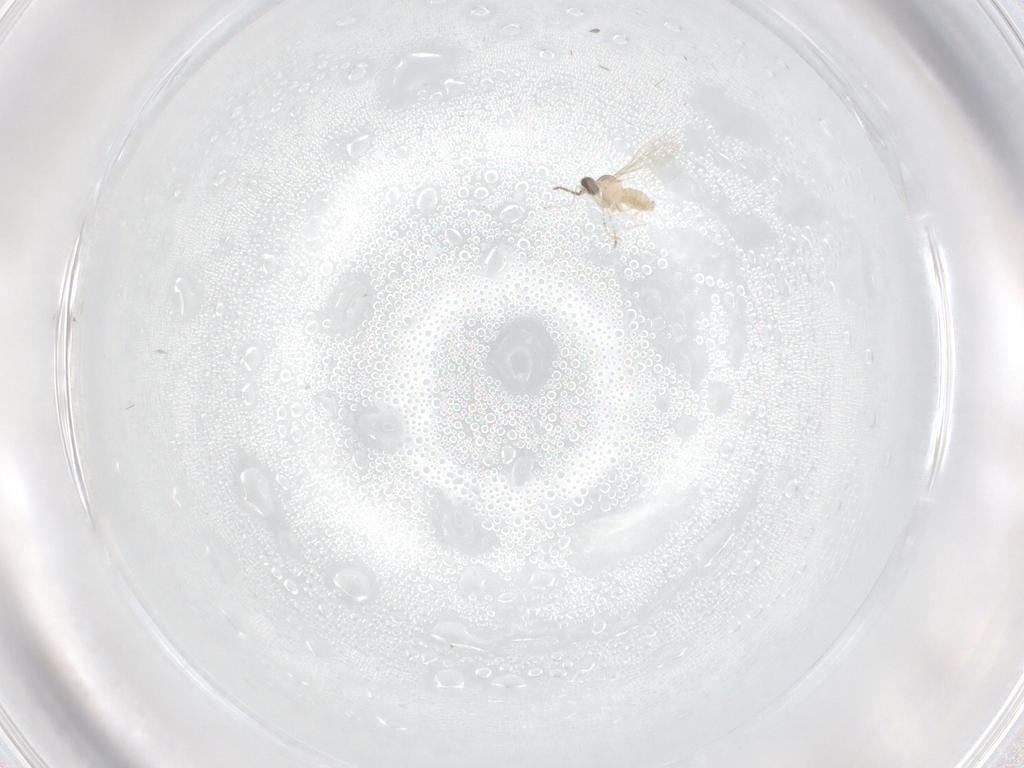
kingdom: Animalia
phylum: Arthropoda
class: Insecta
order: Diptera
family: Cecidomyiidae
